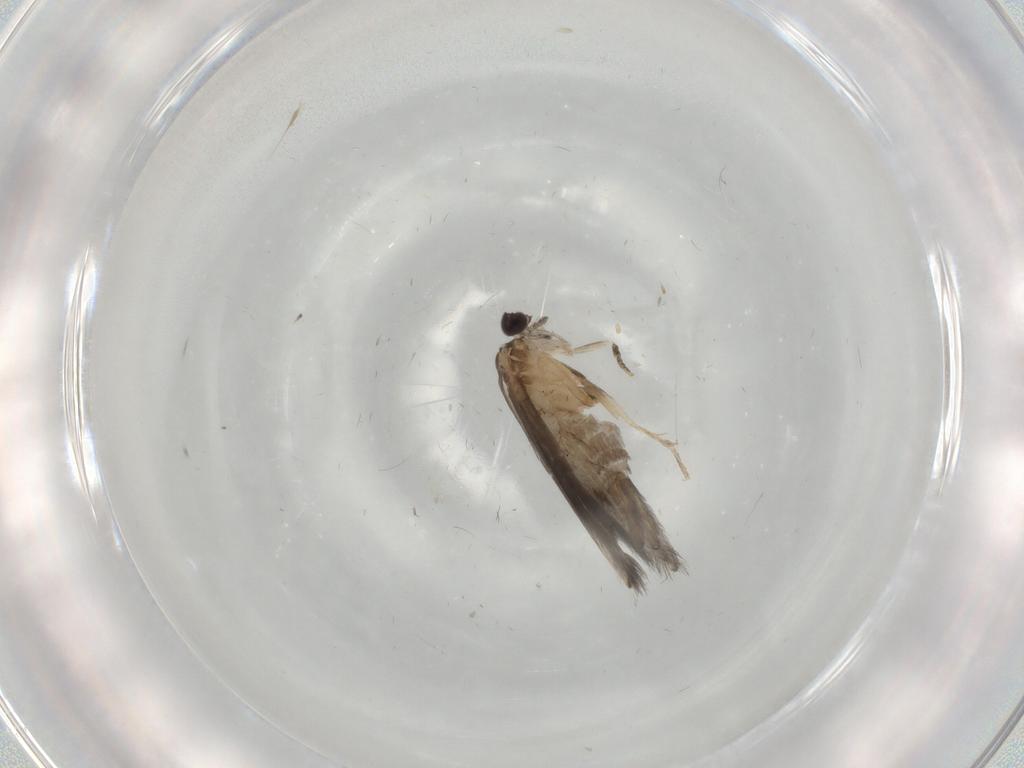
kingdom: Animalia
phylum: Arthropoda
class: Insecta
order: Trichoptera
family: Hydroptilidae
